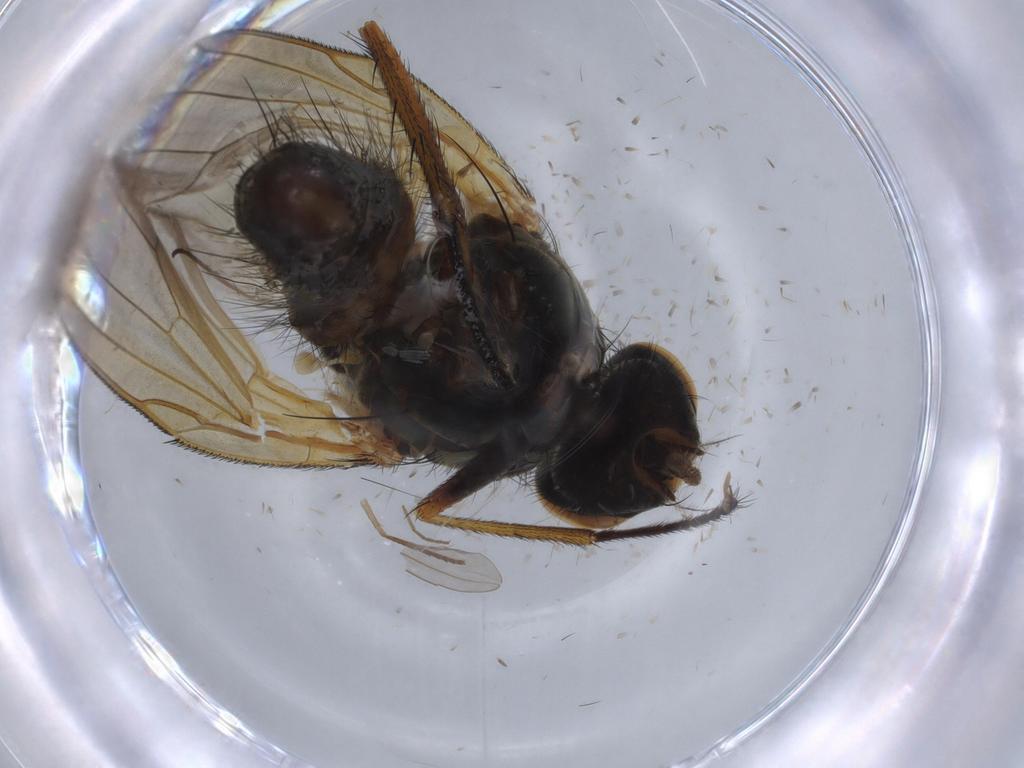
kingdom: Animalia
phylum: Arthropoda
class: Insecta
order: Diptera
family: Anthomyiidae
